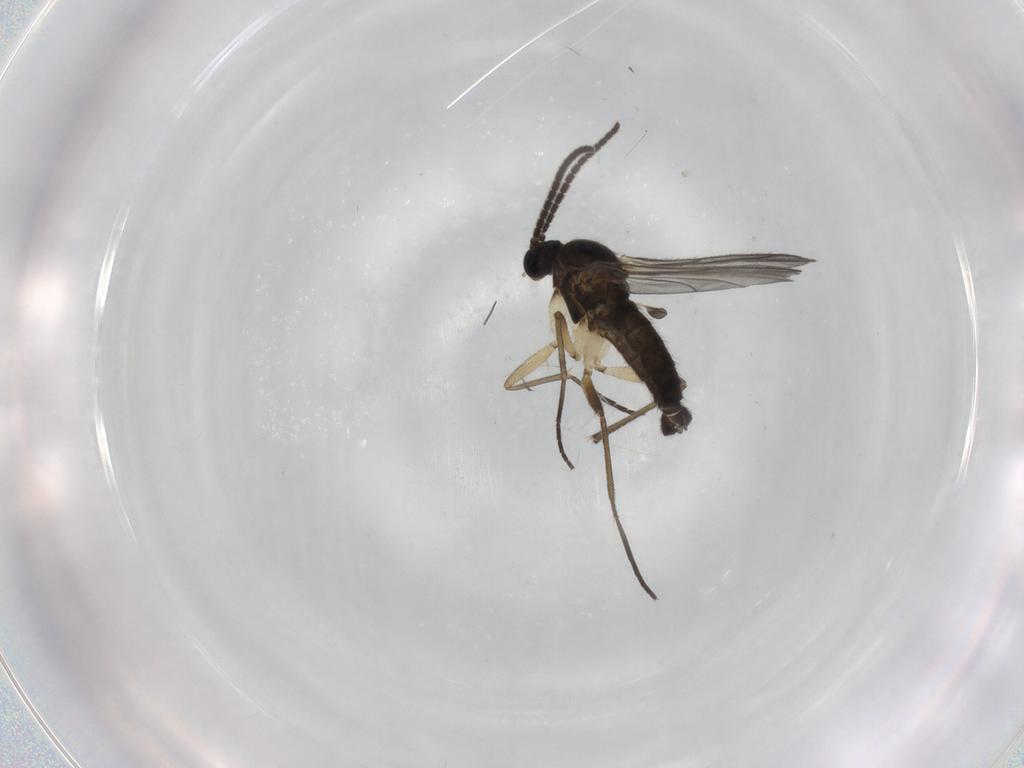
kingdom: Animalia
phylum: Arthropoda
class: Insecta
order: Diptera
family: Sciaridae
